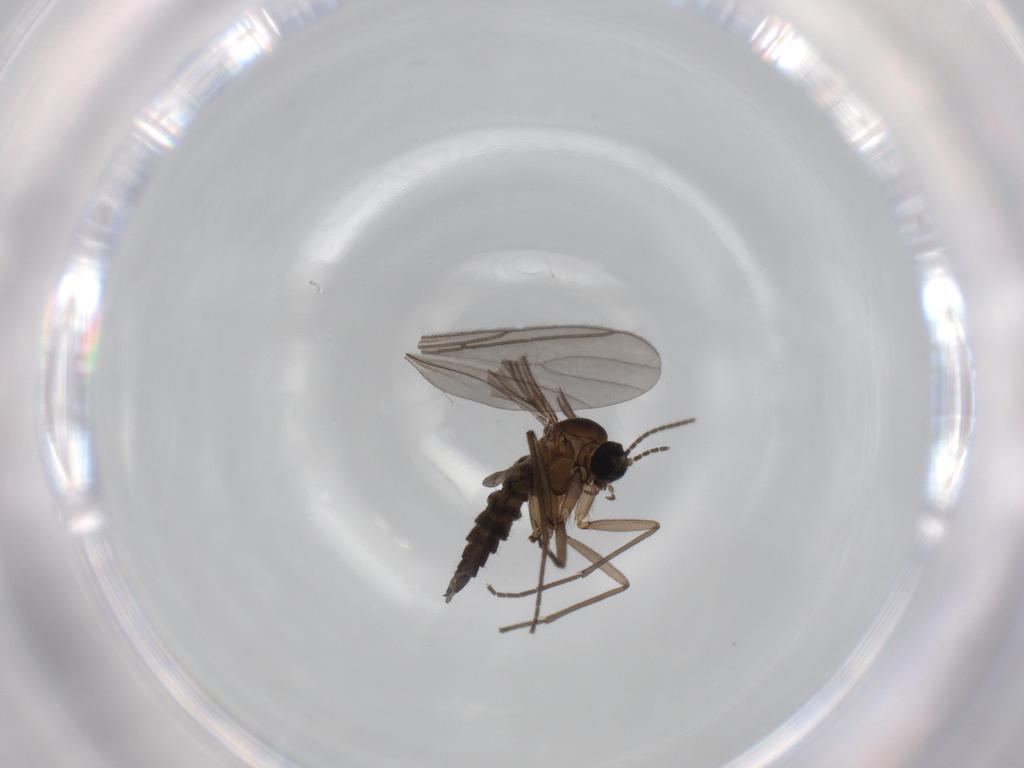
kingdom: Animalia
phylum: Arthropoda
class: Insecta
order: Diptera
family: Sciaridae
